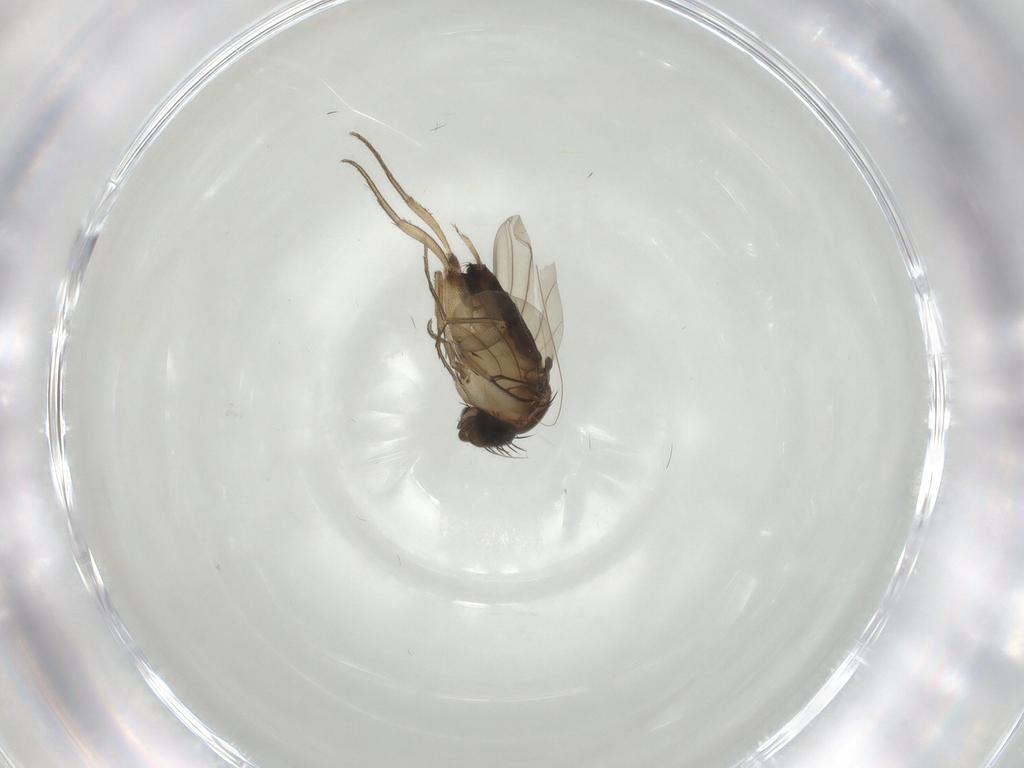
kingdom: Animalia
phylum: Arthropoda
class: Insecta
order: Diptera
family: Phoridae
